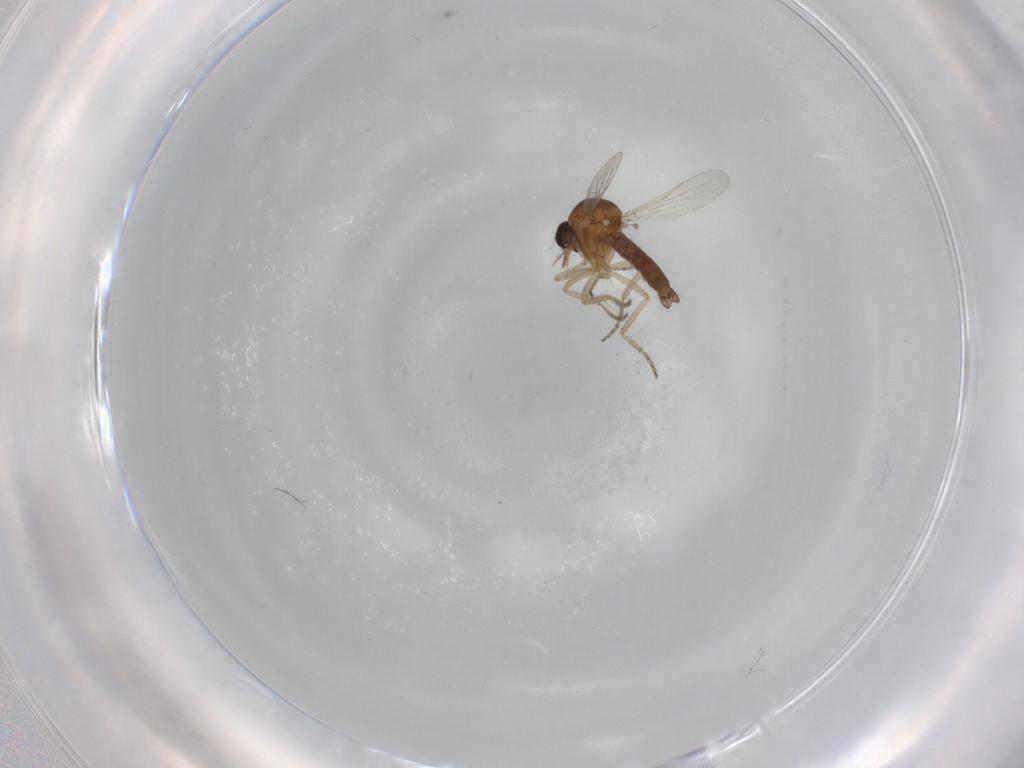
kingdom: Animalia
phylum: Arthropoda
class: Insecta
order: Diptera
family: Ceratopogonidae
